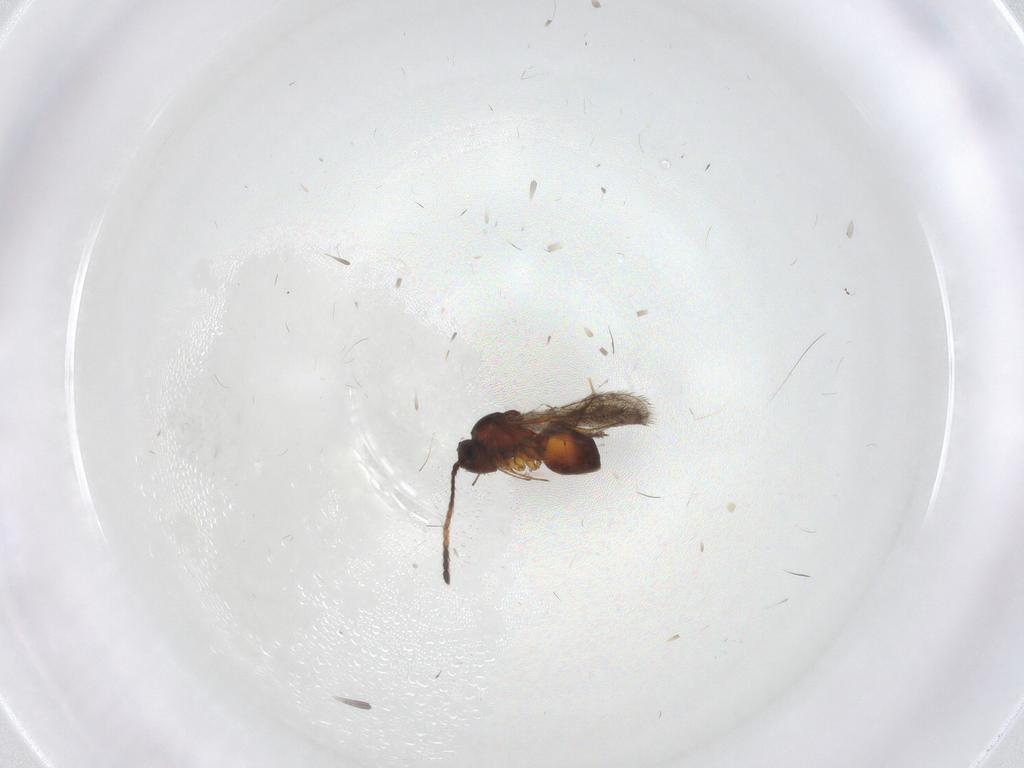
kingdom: Animalia
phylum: Arthropoda
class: Insecta
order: Hymenoptera
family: Figitidae
